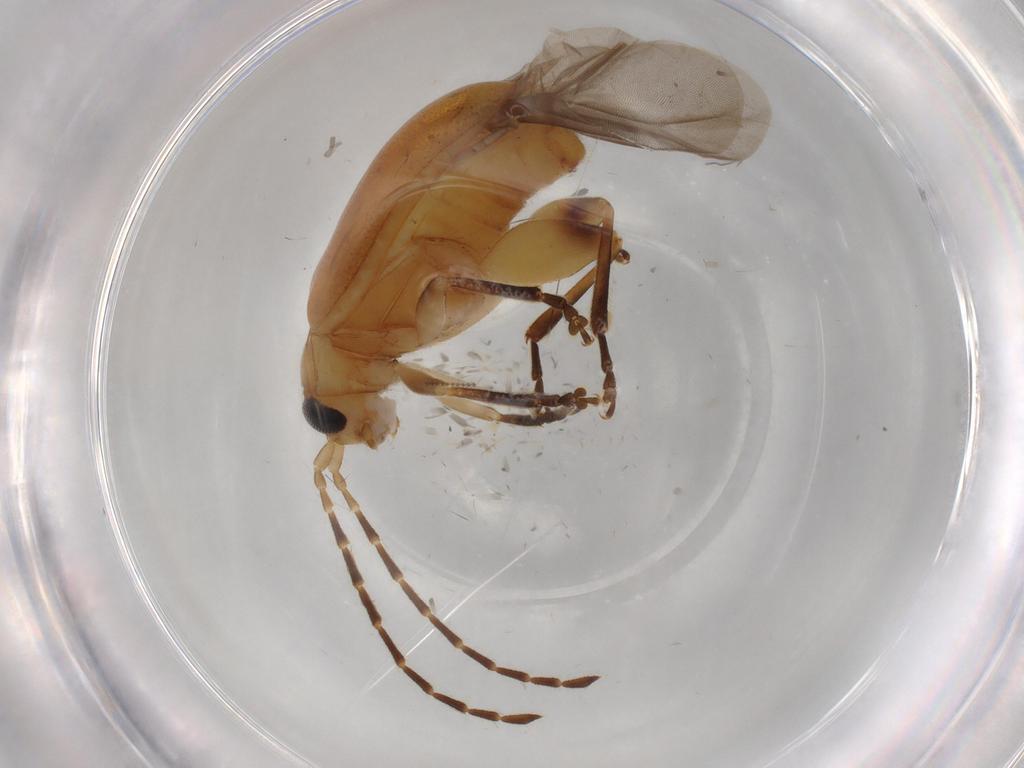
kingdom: Animalia
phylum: Arthropoda
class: Insecta
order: Coleoptera
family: Chrysomelidae
